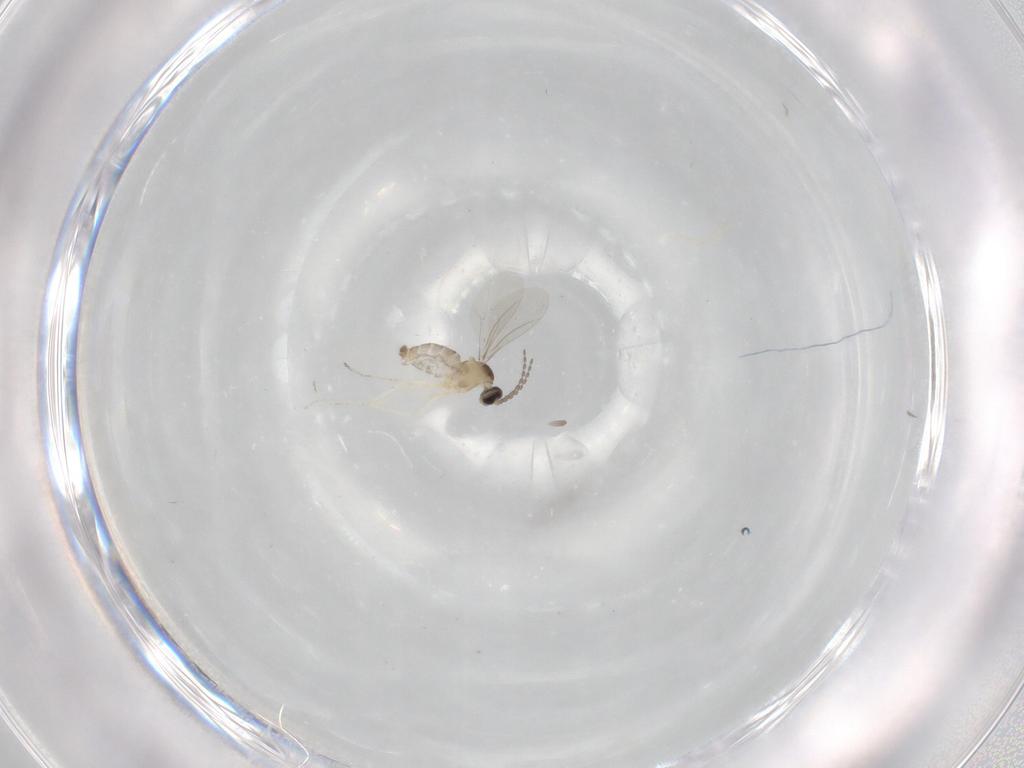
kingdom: Animalia
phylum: Arthropoda
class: Insecta
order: Diptera
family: Cecidomyiidae
